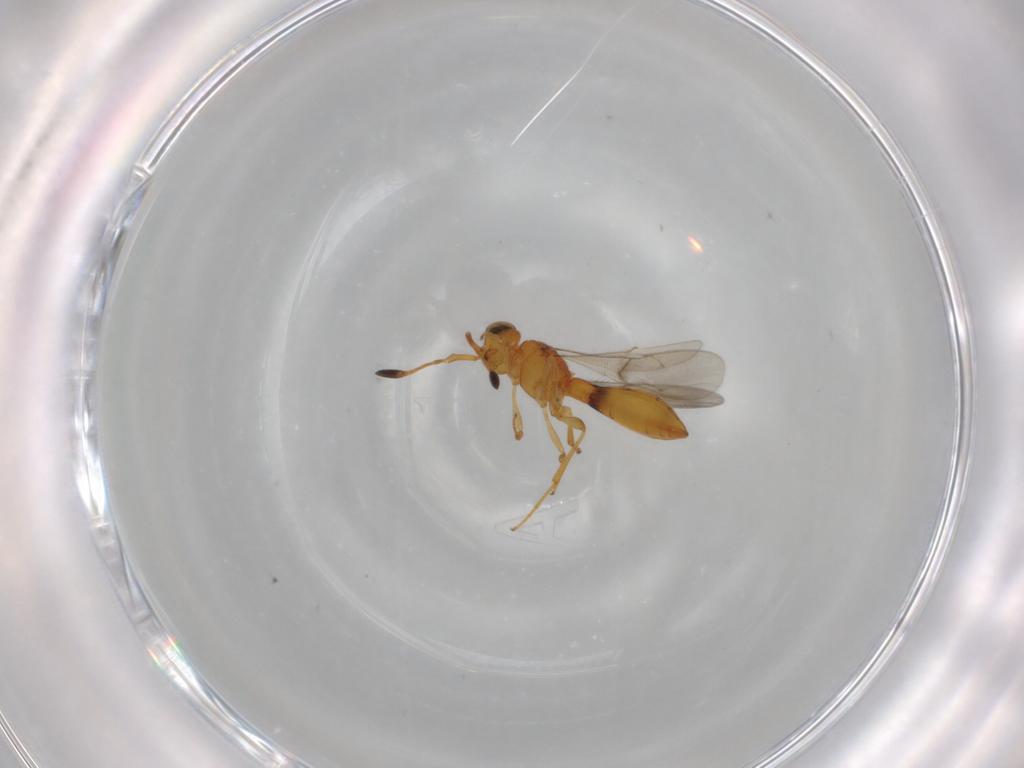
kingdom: Animalia
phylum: Arthropoda
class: Insecta
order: Hymenoptera
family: Scelionidae
